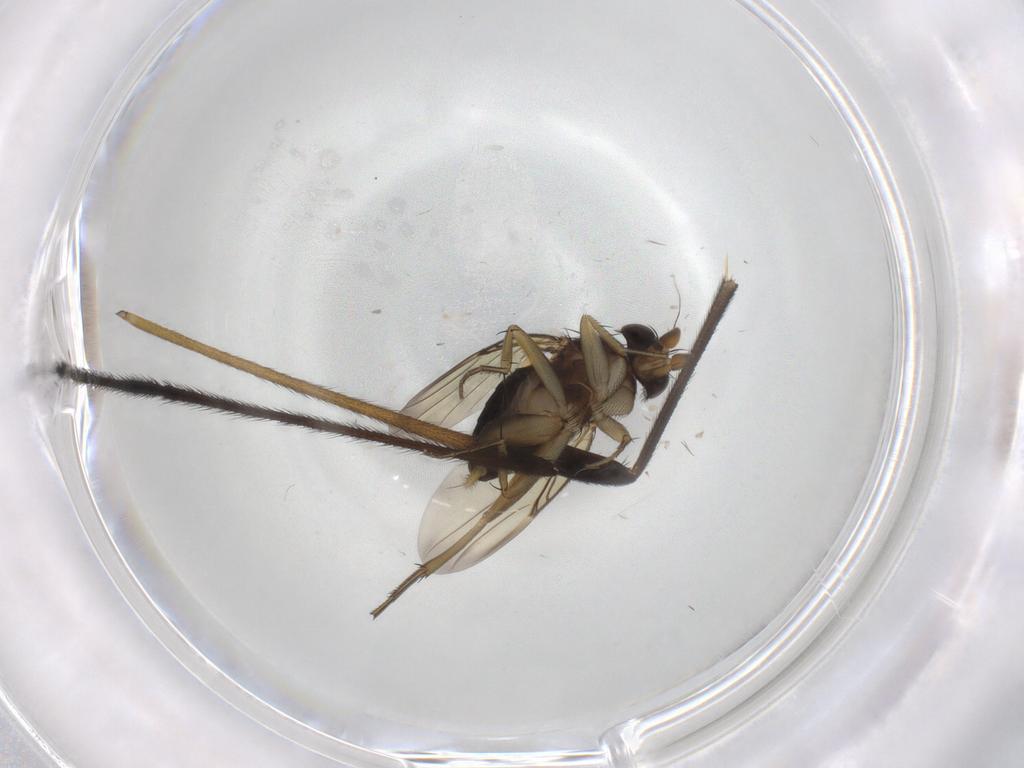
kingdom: Animalia
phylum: Arthropoda
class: Insecta
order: Diptera
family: Limoniidae
